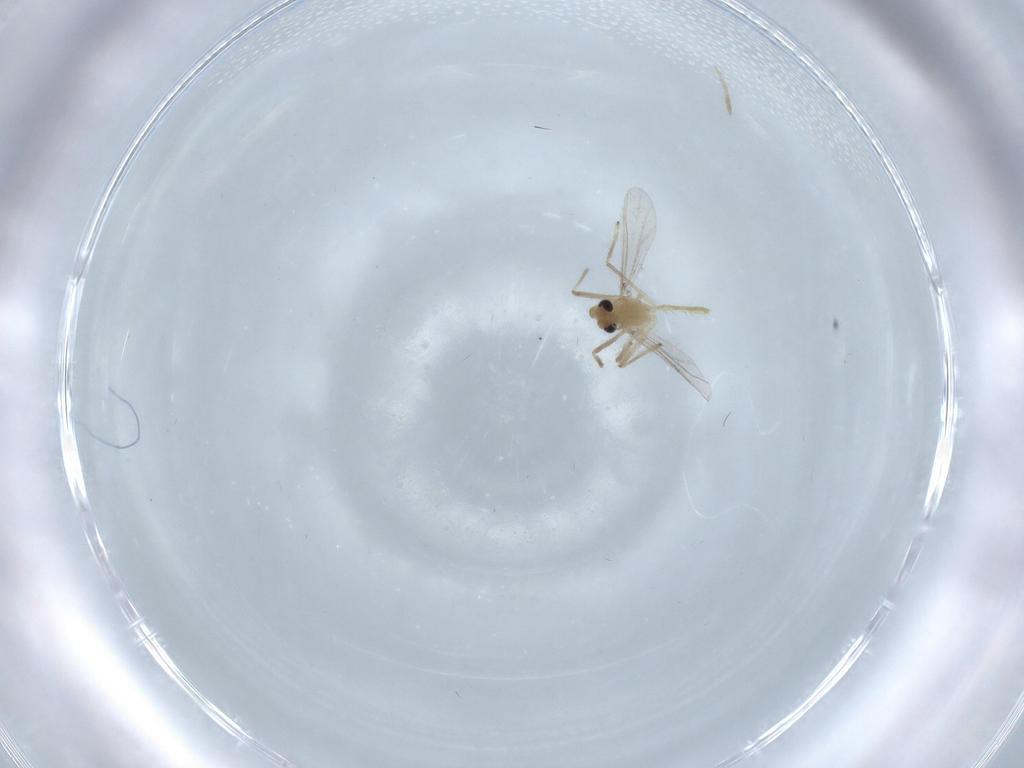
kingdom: Animalia
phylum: Arthropoda
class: Insecta
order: Diptera
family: Chironomidae
